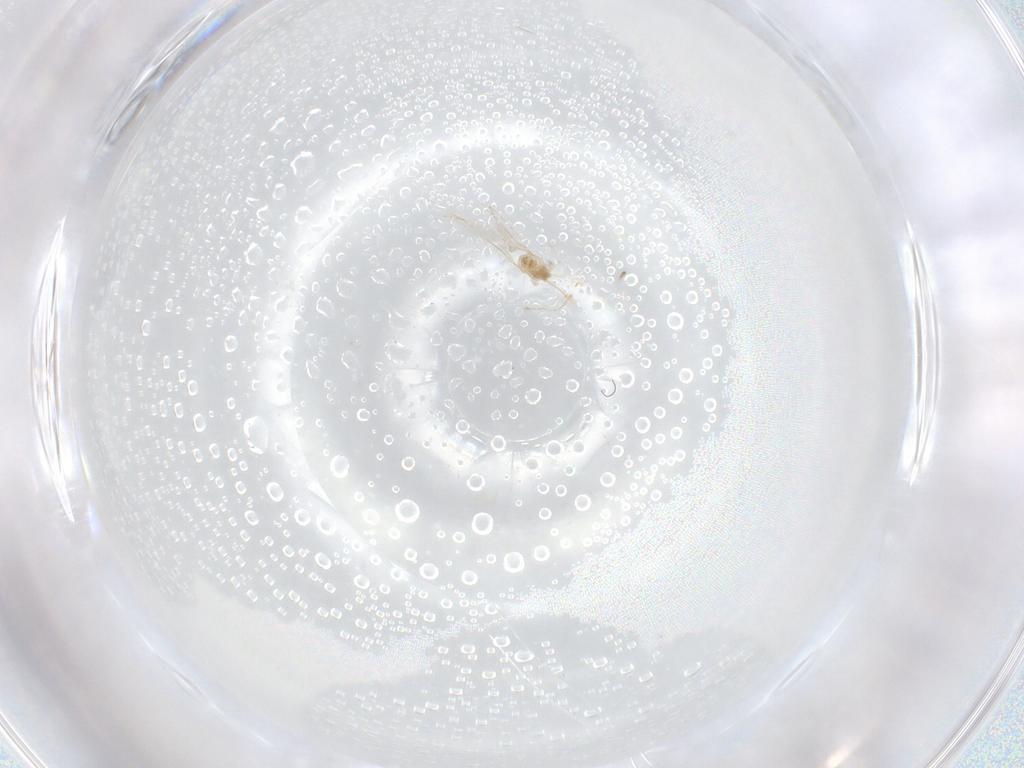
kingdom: Animalia
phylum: Arthropoda
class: Insecta
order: Diptera
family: Cecidomyiidae
